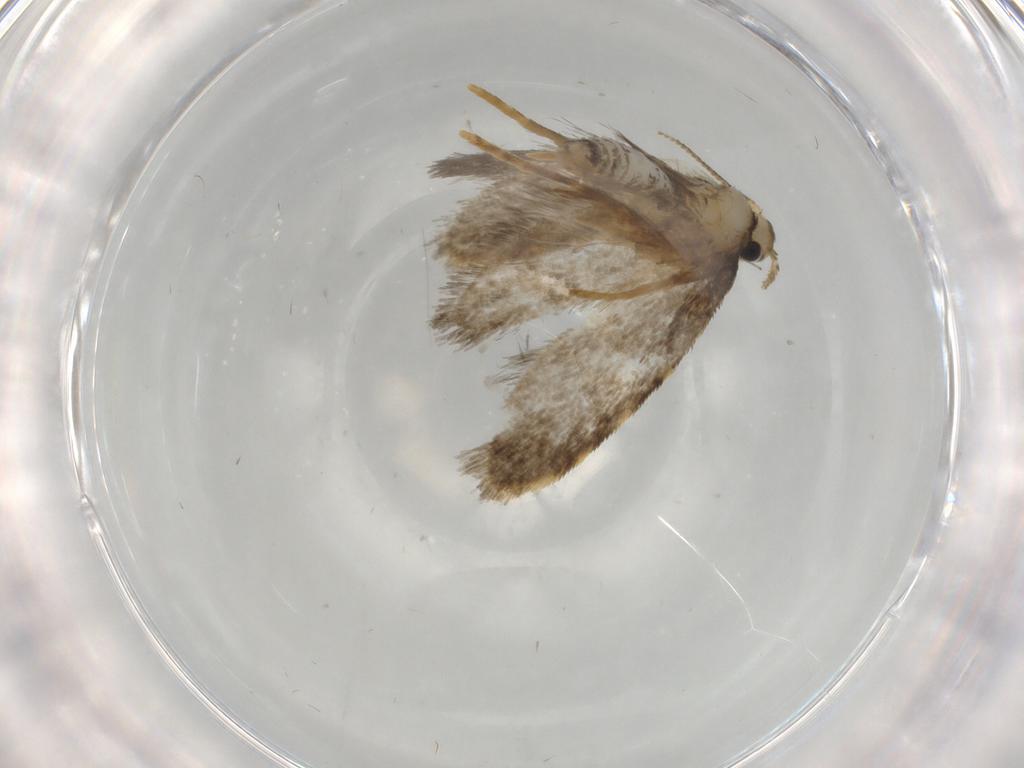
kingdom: Animalia
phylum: Arthropoda
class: Insecta
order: Lepidoptera
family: Psychidae
